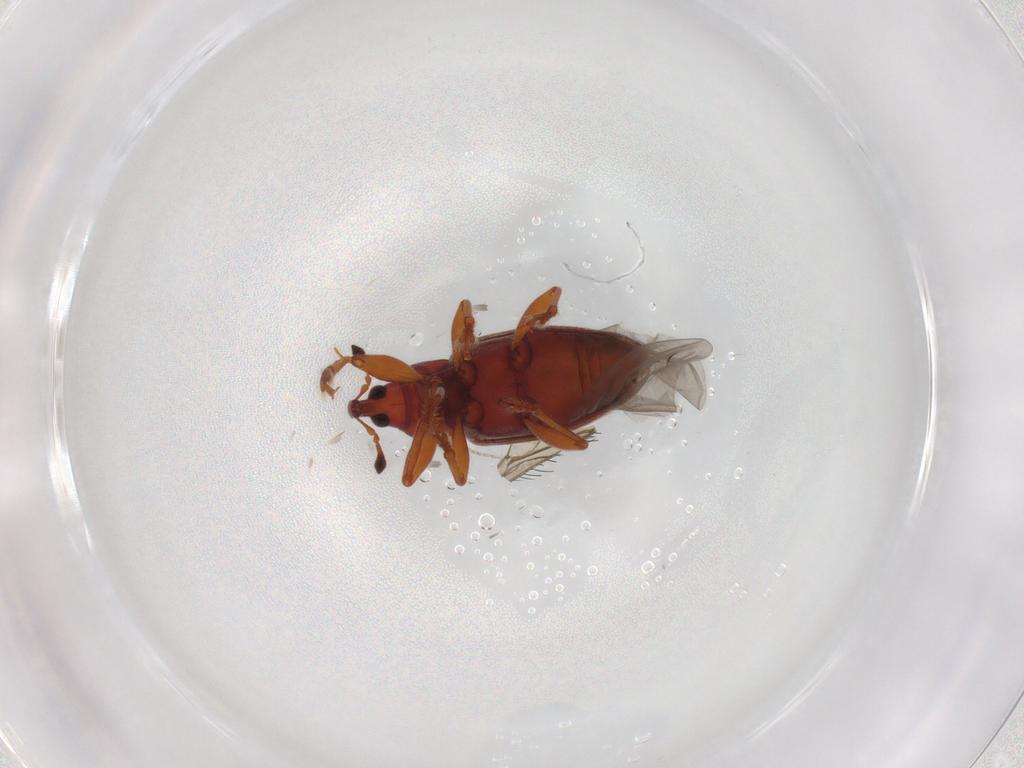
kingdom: Animalia
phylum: Arthropoda
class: Insecta
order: Coleoptera
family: Curculionidae
